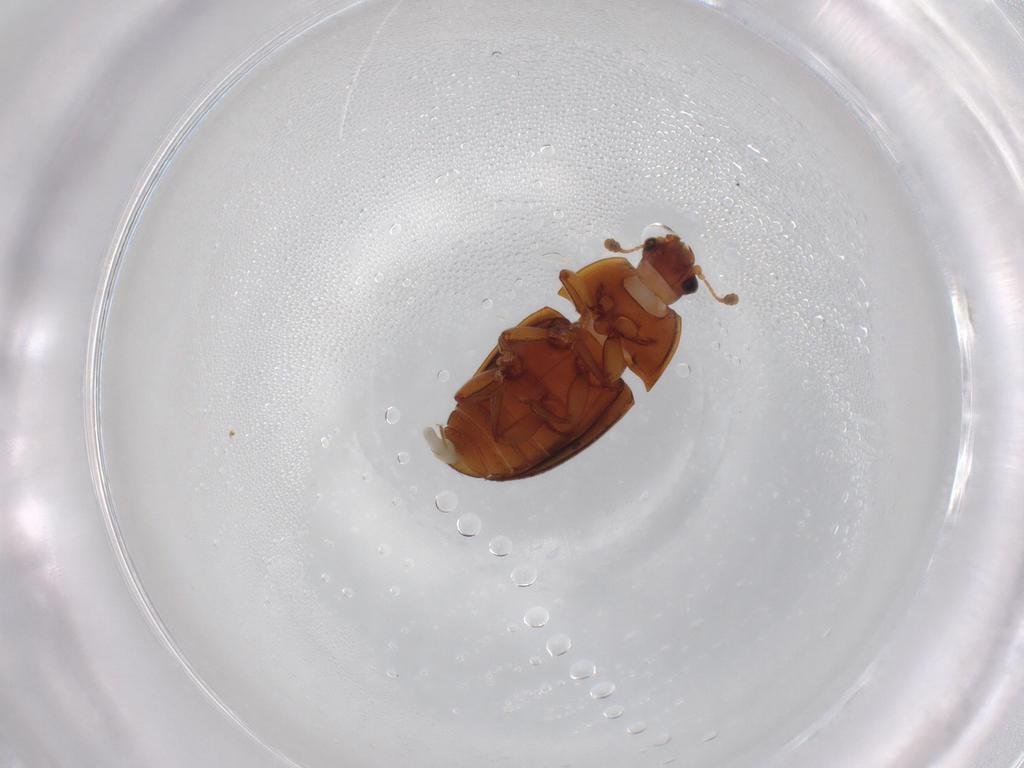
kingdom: Animalia
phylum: Arthropoda
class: Insecta
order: Coleoptera
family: Nitidulidae
